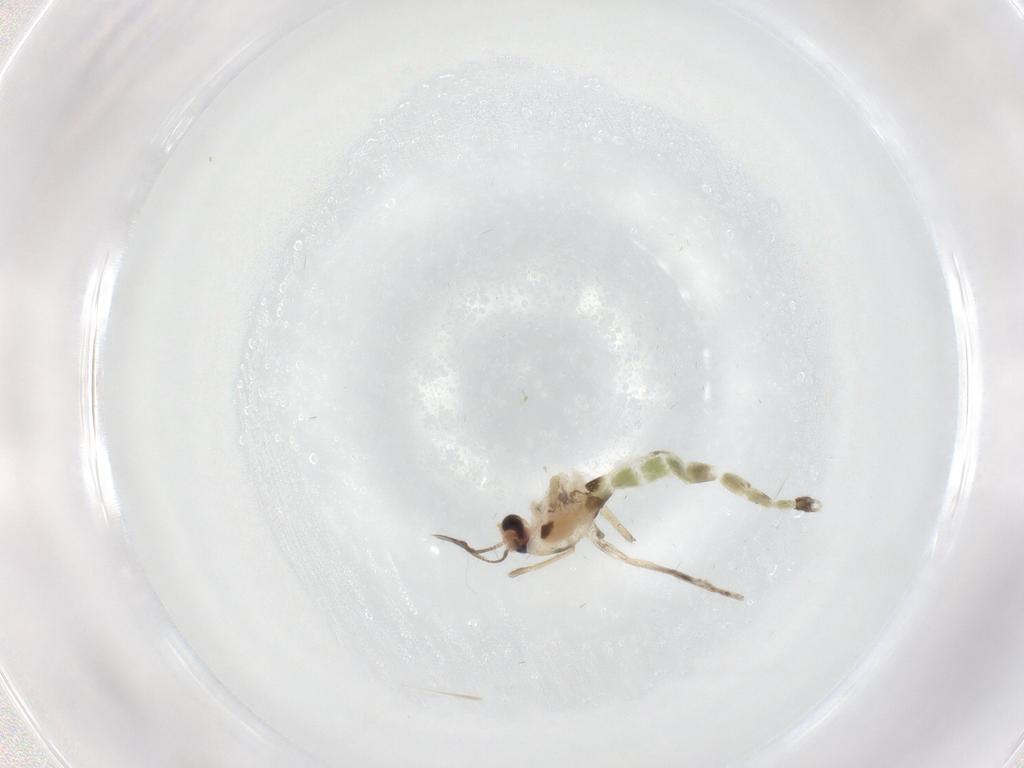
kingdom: Animalia
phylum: Arthropoda
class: Insecta
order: Diptera
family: Chironomidae
